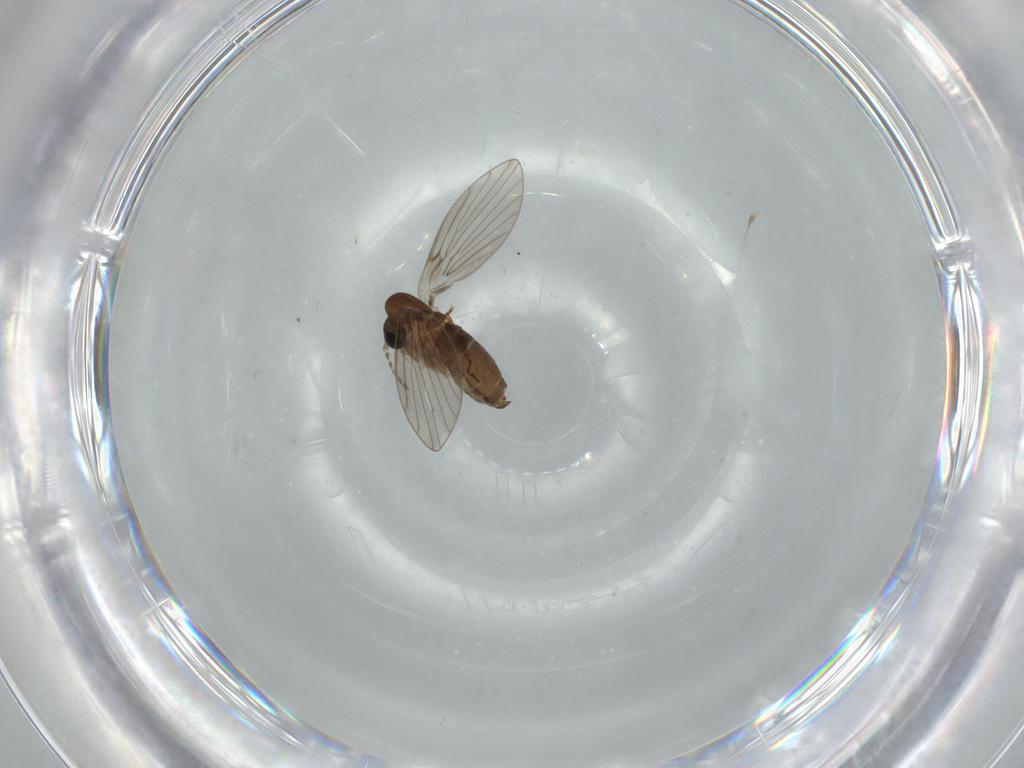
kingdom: Animalia
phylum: Arthropoda
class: Insecta
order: Diptera
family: Psychodidae
